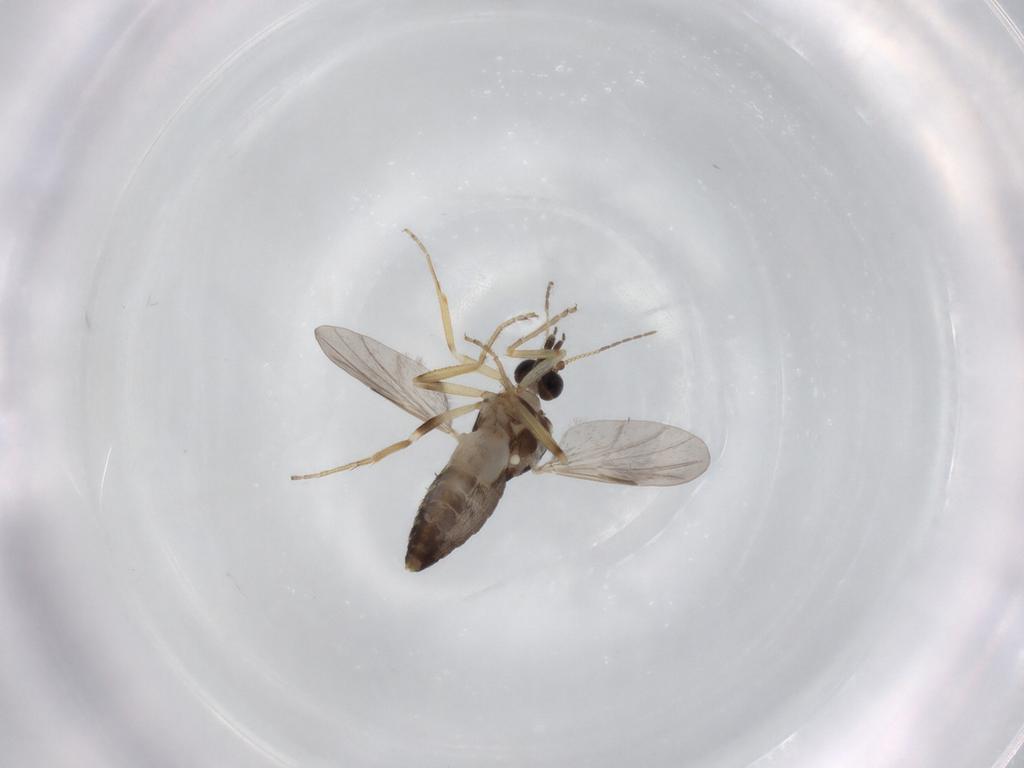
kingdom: Animalia
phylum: Arthropoda
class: Insecta
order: Diptera
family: Ceratopogonidae
